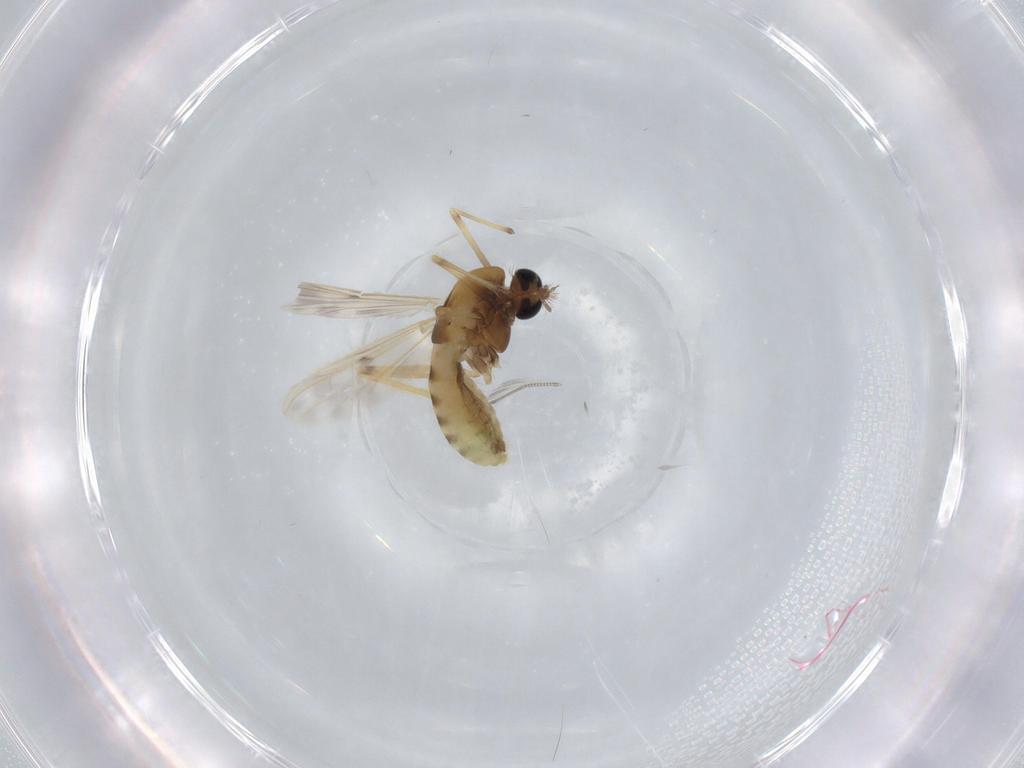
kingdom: Animalia
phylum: Arthropoda
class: Insecta
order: Diptera
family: Chironomidae
